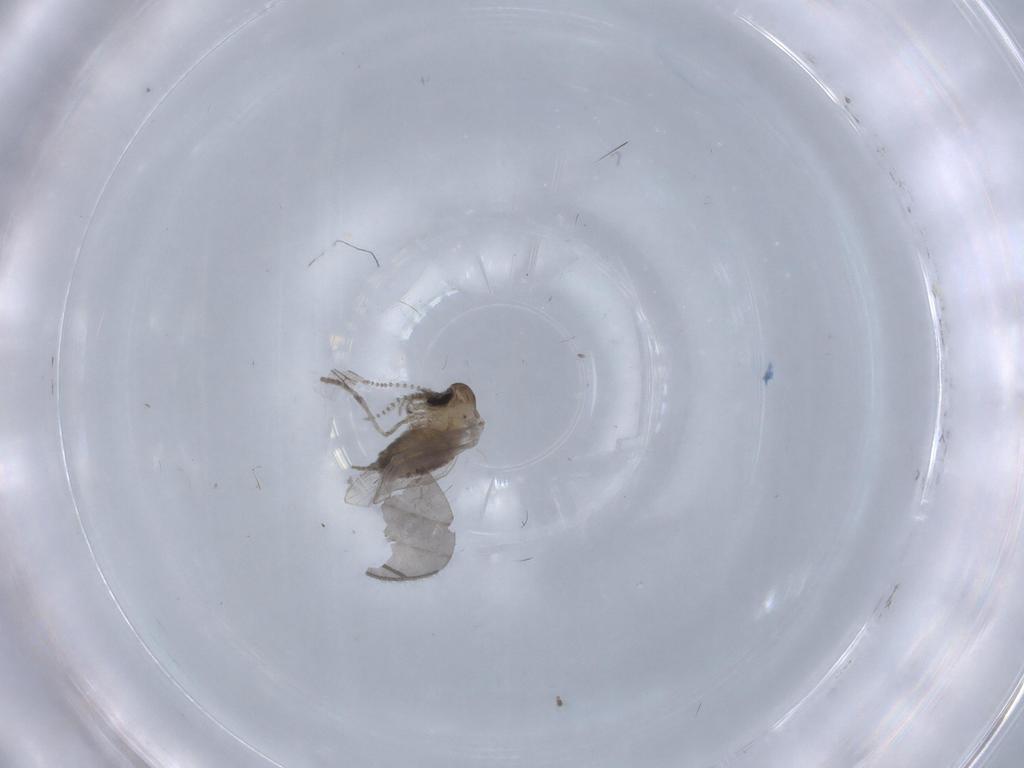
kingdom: Animalia
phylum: Arthropoda
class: Insecta
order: Diptera
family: Psychodidae
